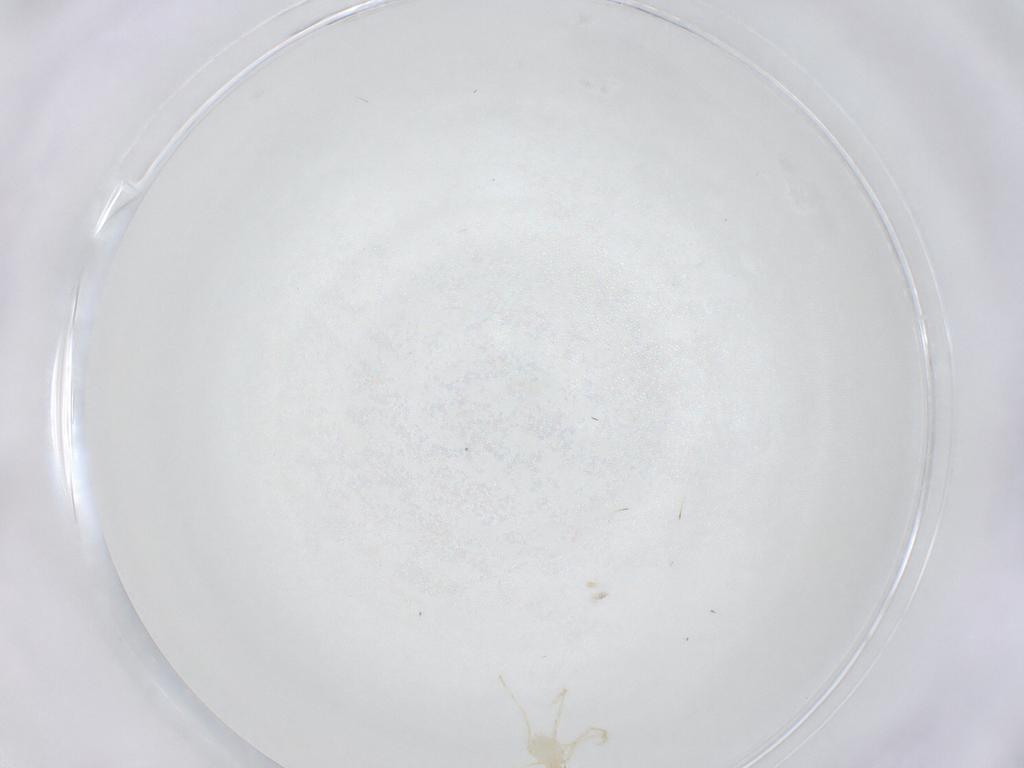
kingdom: Animalia
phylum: Arthropoda
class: Arachnida
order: Trombidiformes
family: Erythraeidae
